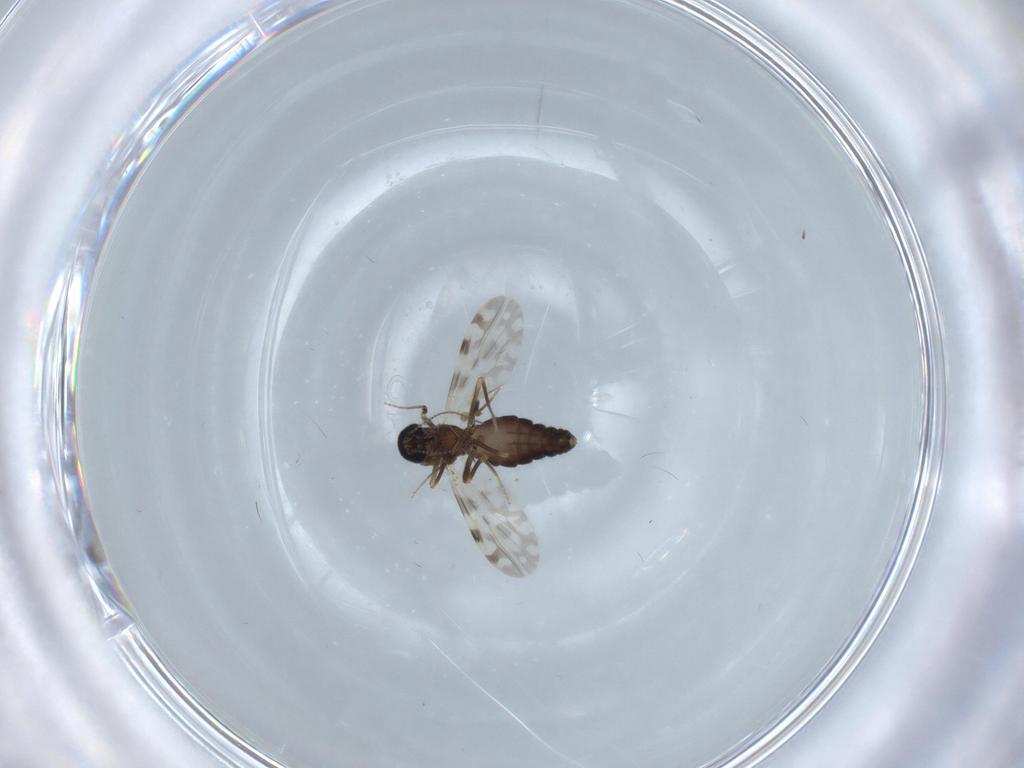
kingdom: Animalia
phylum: Arthropoda
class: Insecta
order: Diptera
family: Ceratopogonidae
